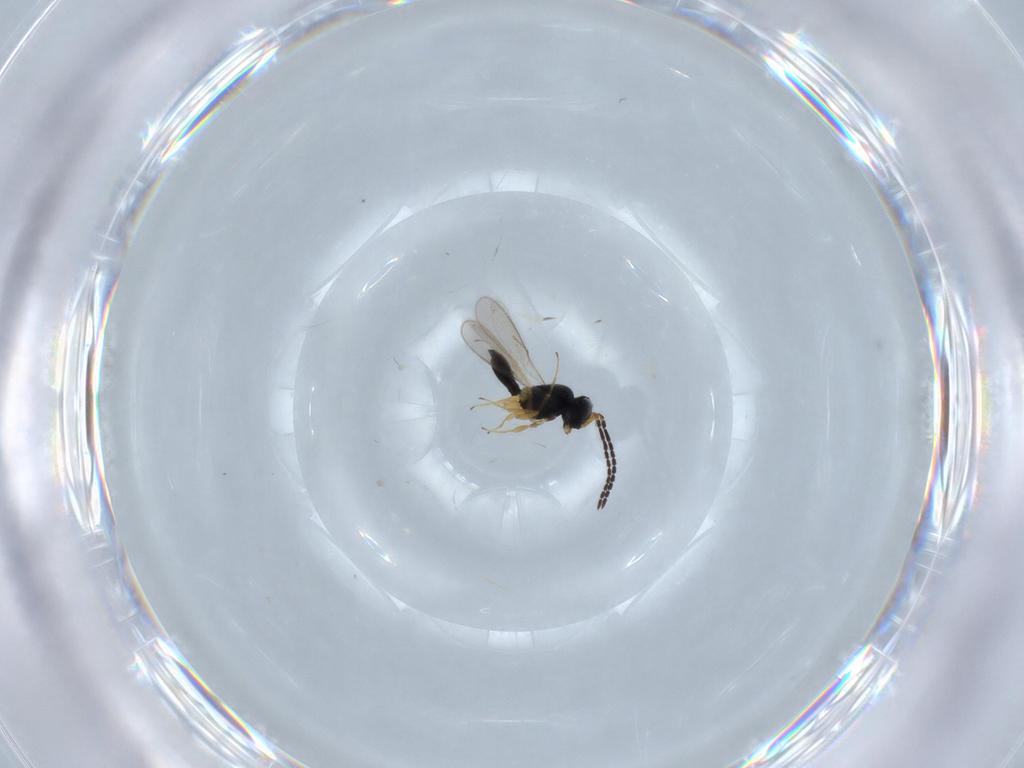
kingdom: Animalia
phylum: Arthropoda
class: Insecta
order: Hymenoptera
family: Scelionidae
